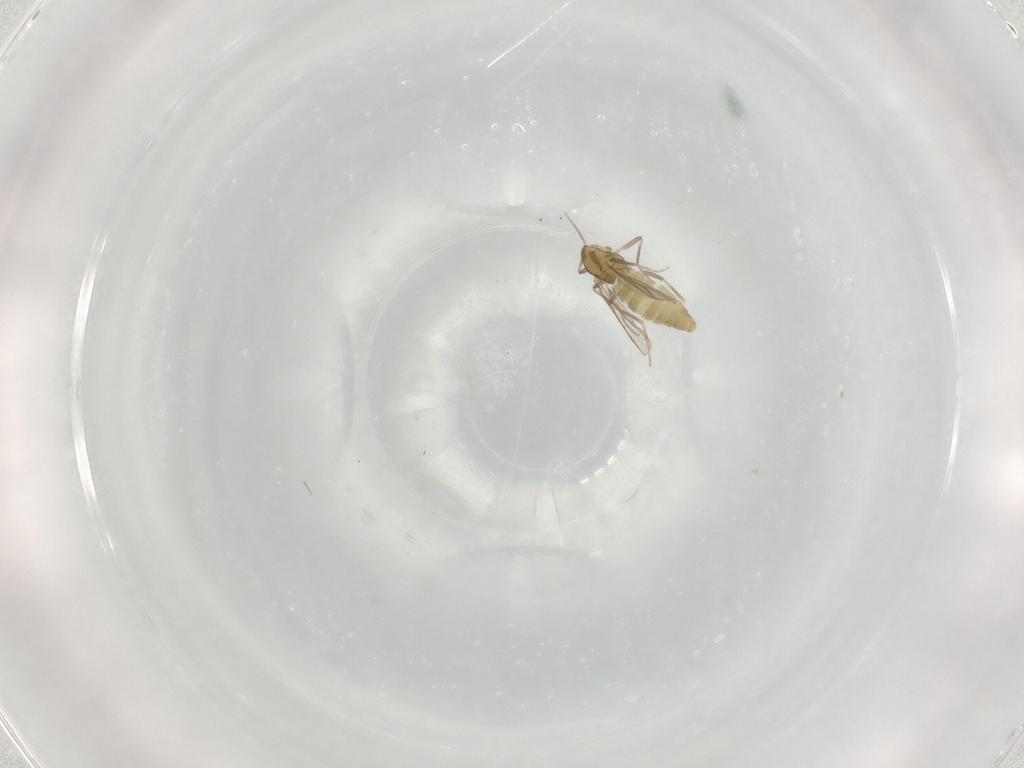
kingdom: Animalia
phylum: Arthropoda
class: Insecta
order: Diptera
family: Chironomidae
